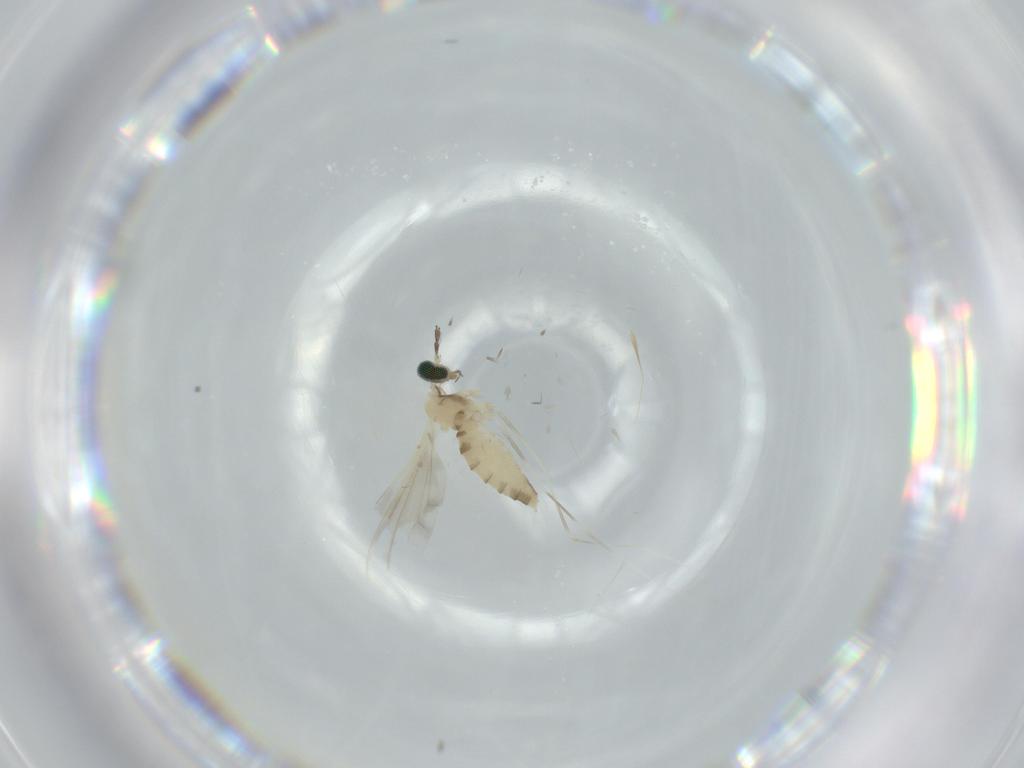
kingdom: Animalia
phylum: Arthropoda
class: Insecta
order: Diptera
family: Cecidomyiidae
